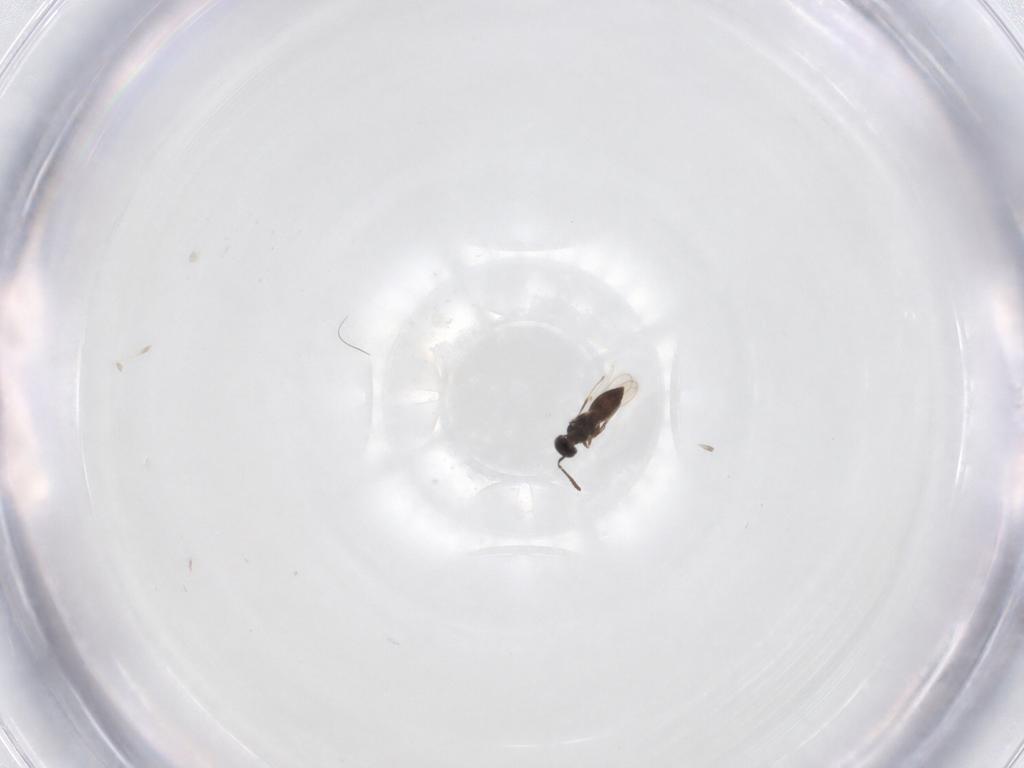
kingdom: Animalia
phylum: Arthropoda
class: Insecta
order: Hymenoptera
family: Scelionidae
